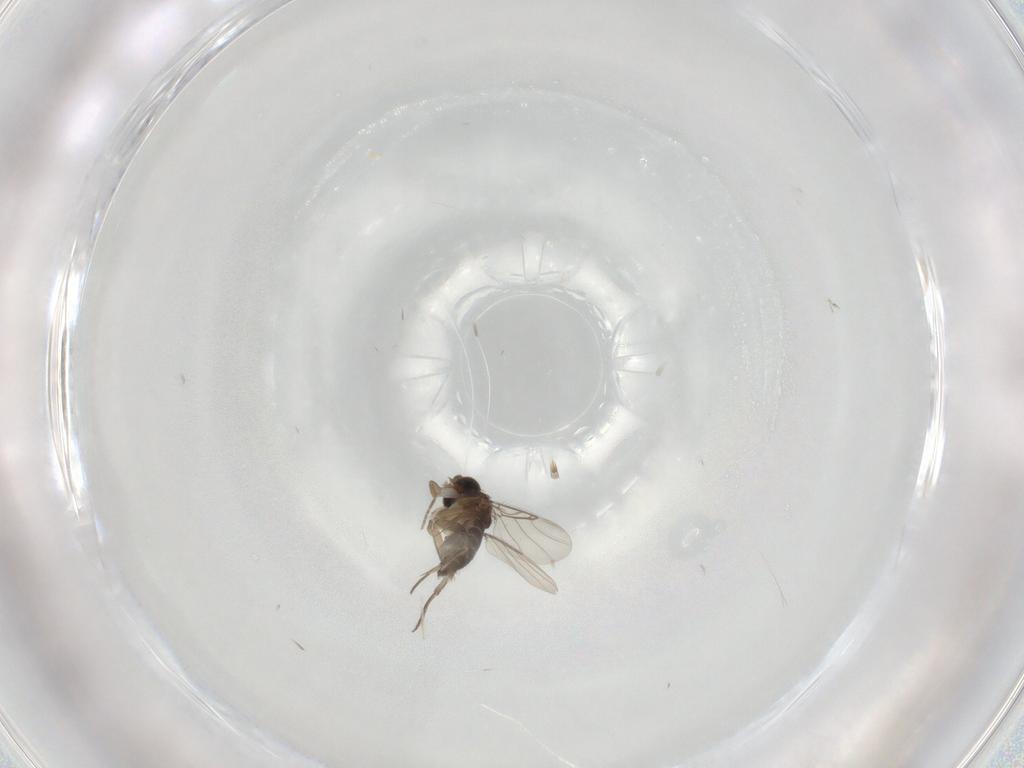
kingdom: Animalia
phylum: Arthropoda
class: Insecta
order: Diptera
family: Phoridae
